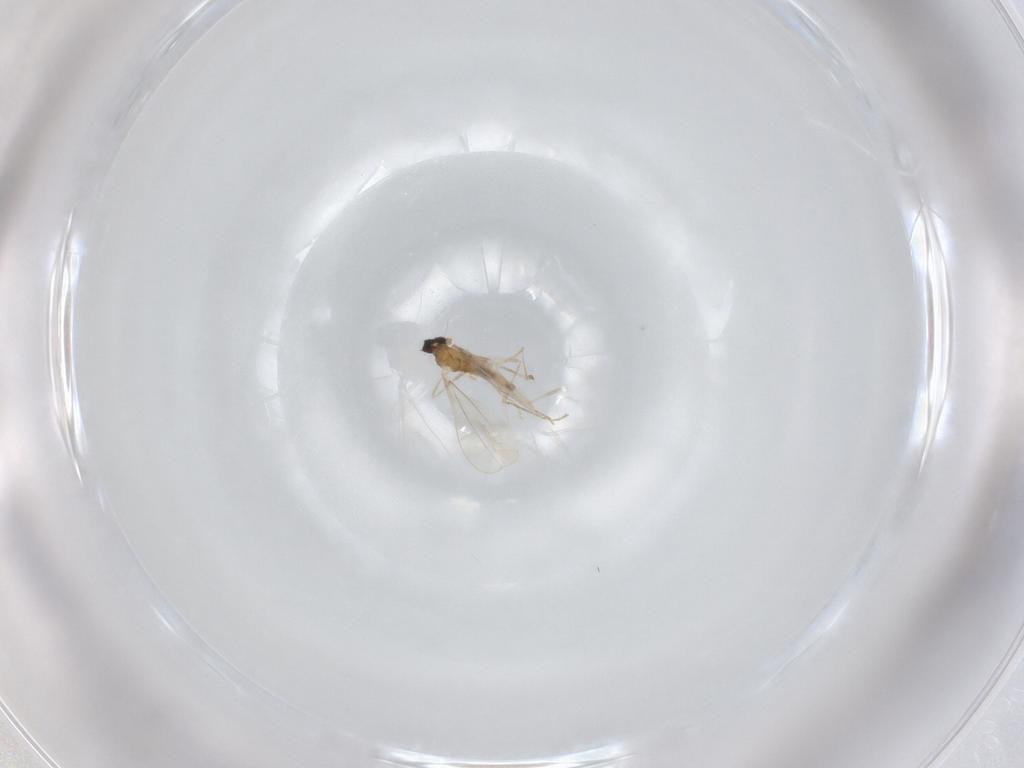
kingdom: Animalia
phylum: Arthropoda
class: Insecta
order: Diptera
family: Cecidomyiidae
